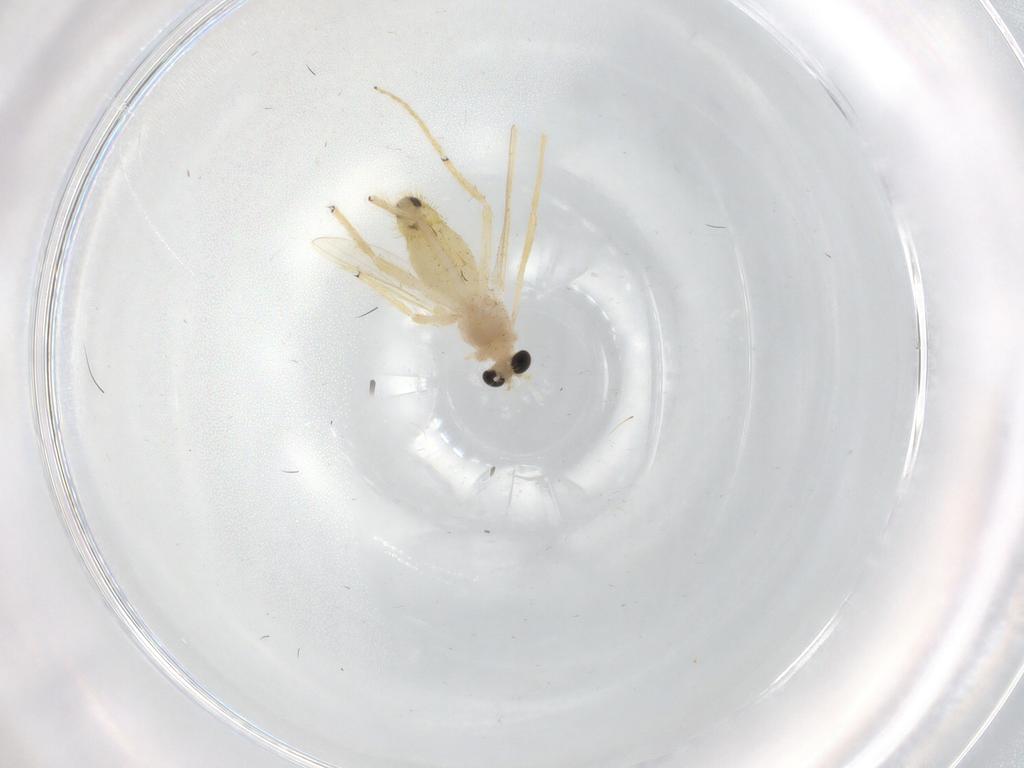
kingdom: Animalia
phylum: Arthropoda
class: Insecta
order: Diptera
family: Chironomidae
